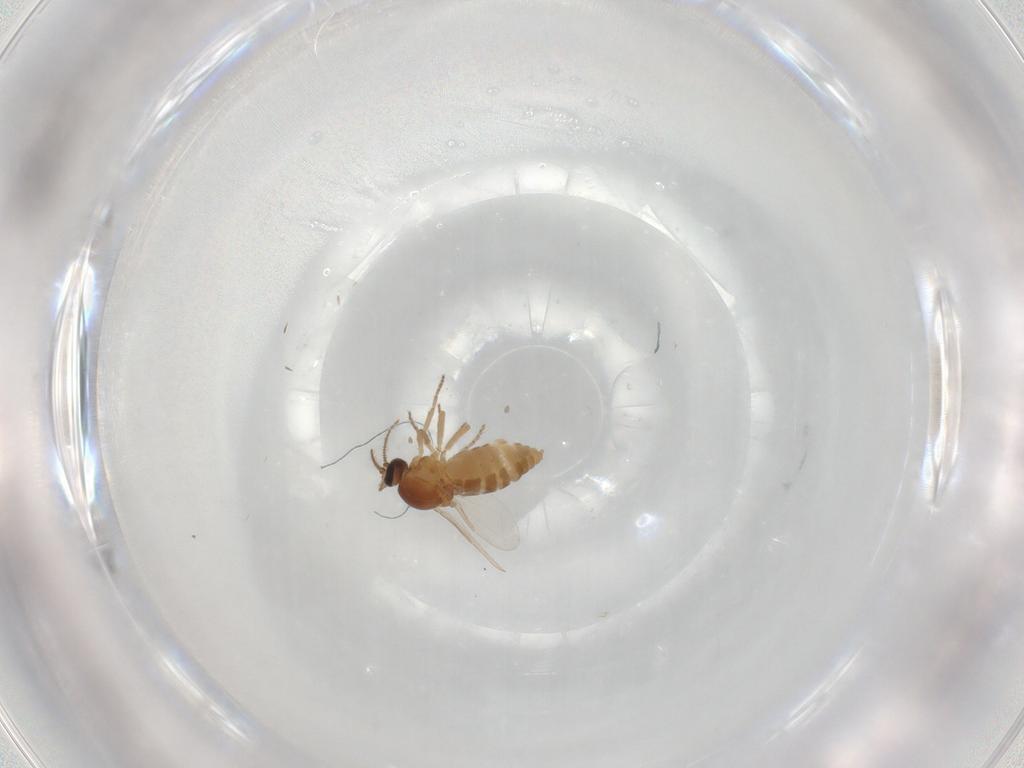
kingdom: Animalia
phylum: Arthropoda
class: Insecta
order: Diptera
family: Ceratopogonidae
